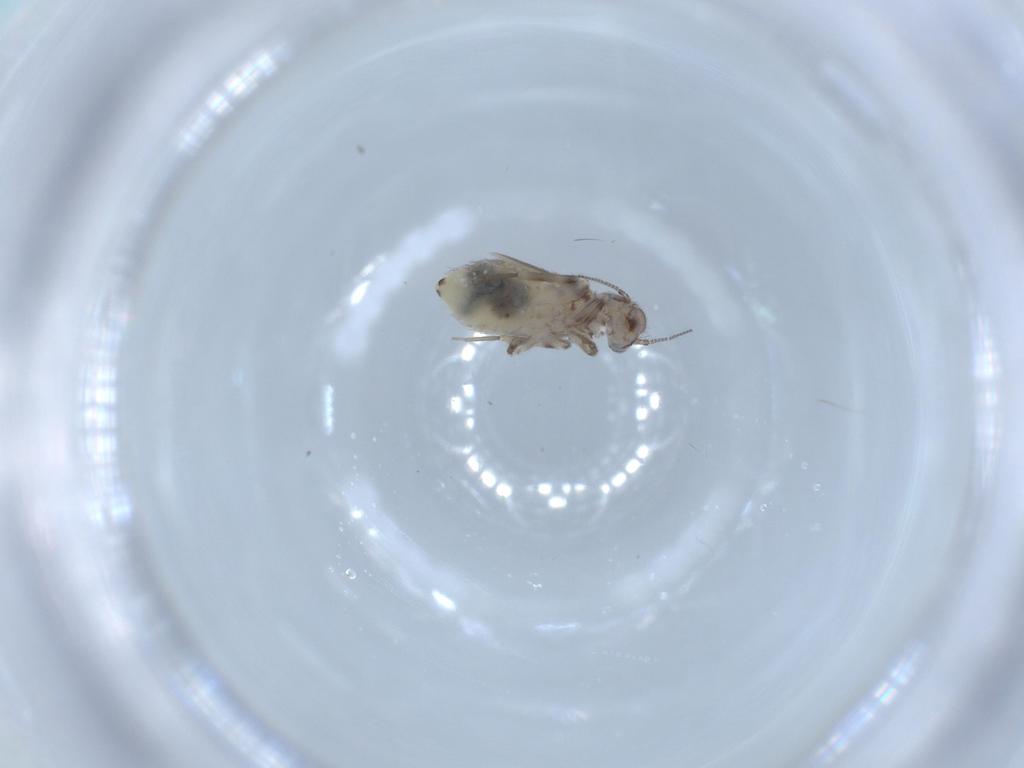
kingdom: Animalia
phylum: Arthropoda
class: Insecta
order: Psocodea
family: Lepidopsocidae
